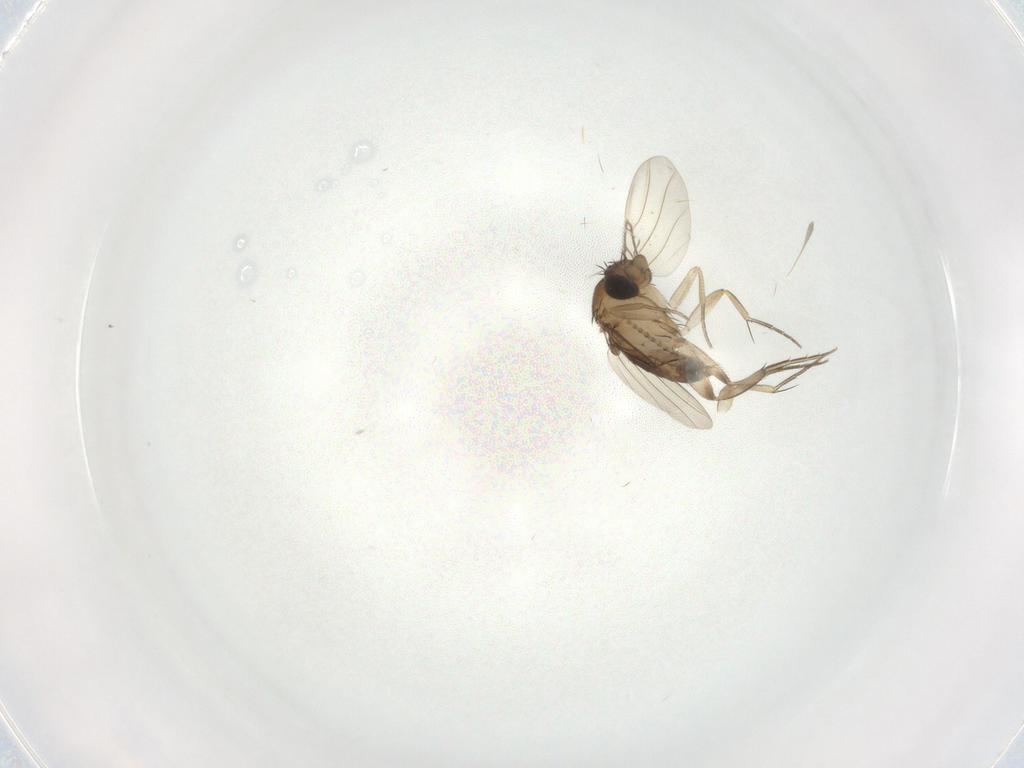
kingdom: Animalia
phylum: Arthropoda
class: Insecta
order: Diptera
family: Phoridae
